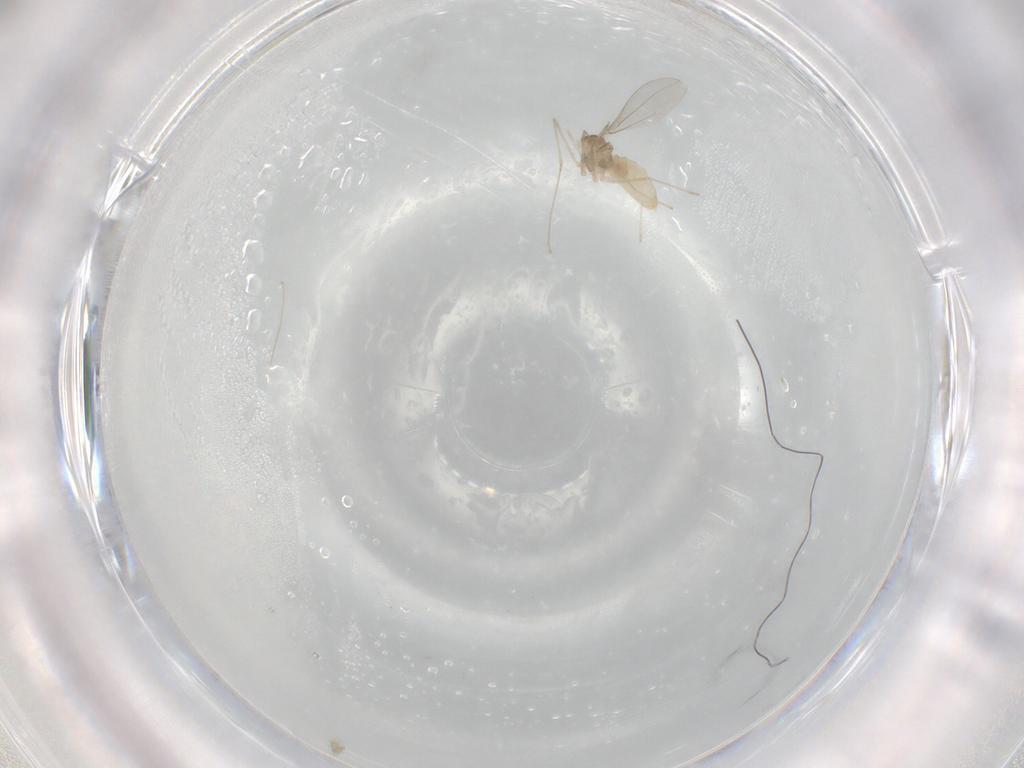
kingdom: Animalia
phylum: Arthropoda
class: Insecta
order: Diptera
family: Cecidomyiidae
